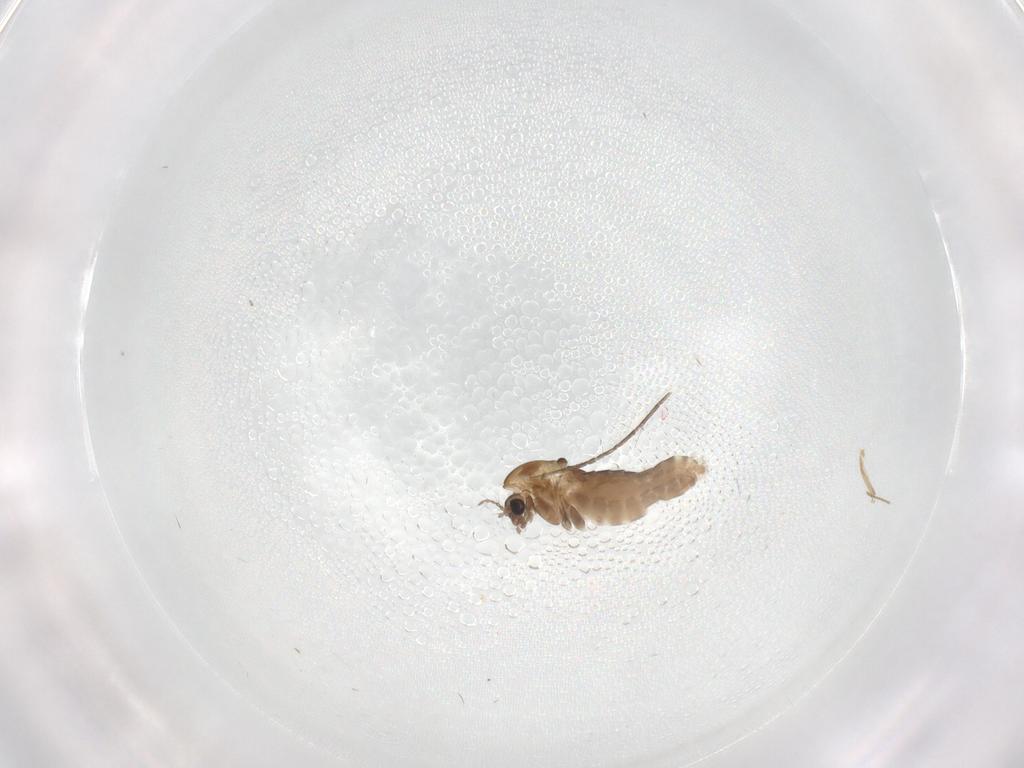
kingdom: Animalia
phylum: Arthropoda
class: Insecta
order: Diptera
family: Chironomidae
